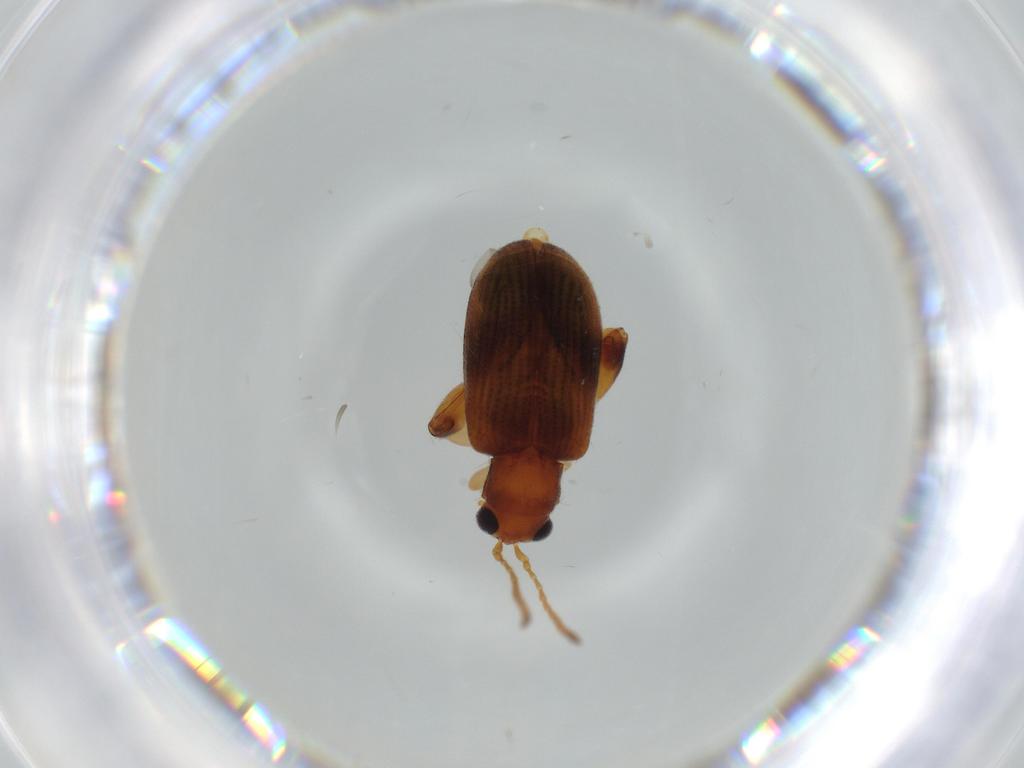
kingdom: Animalia
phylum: Arthropoda
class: Insecta
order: Coleoptera
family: Chrysomelidae
